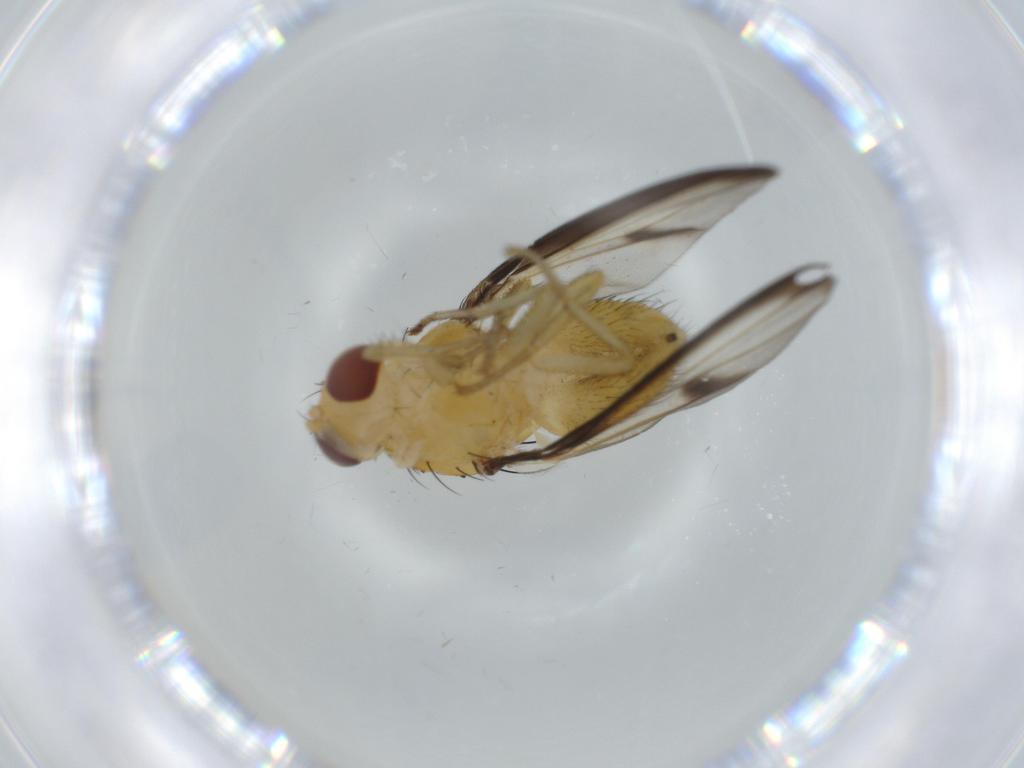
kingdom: Animalia
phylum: Arthropoda
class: Insecta
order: Diptera
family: Lauxaniidae
